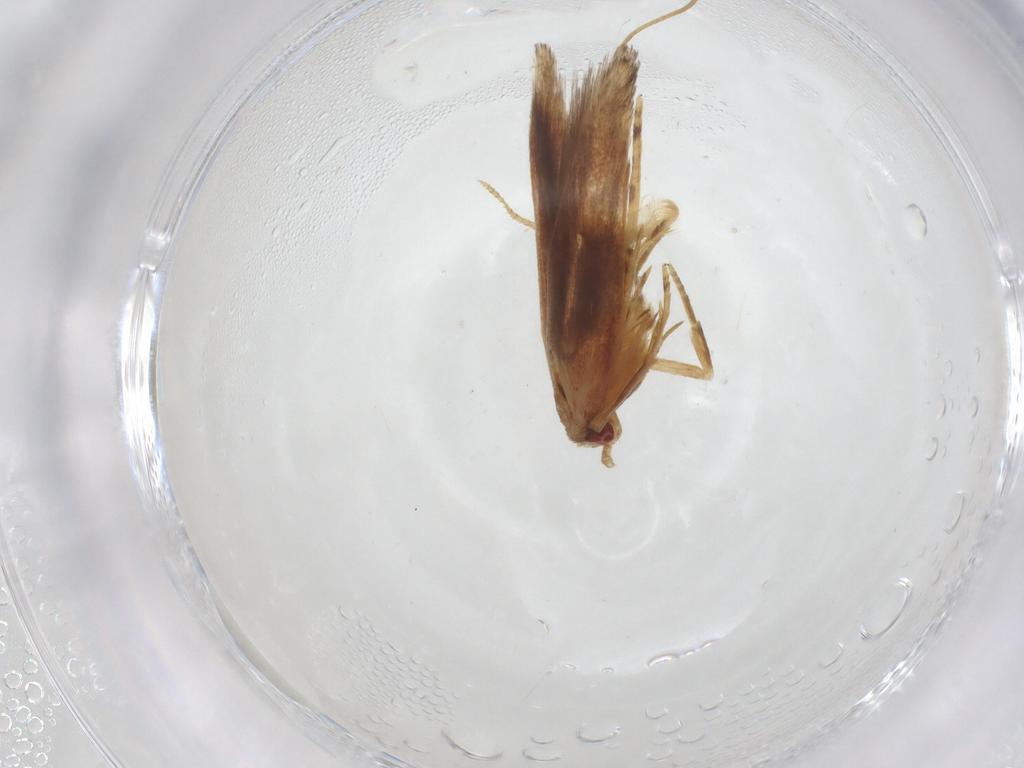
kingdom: Animalia
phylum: Arthropoda
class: Insecta
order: Lepidoptera
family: Cosmopterigidae
